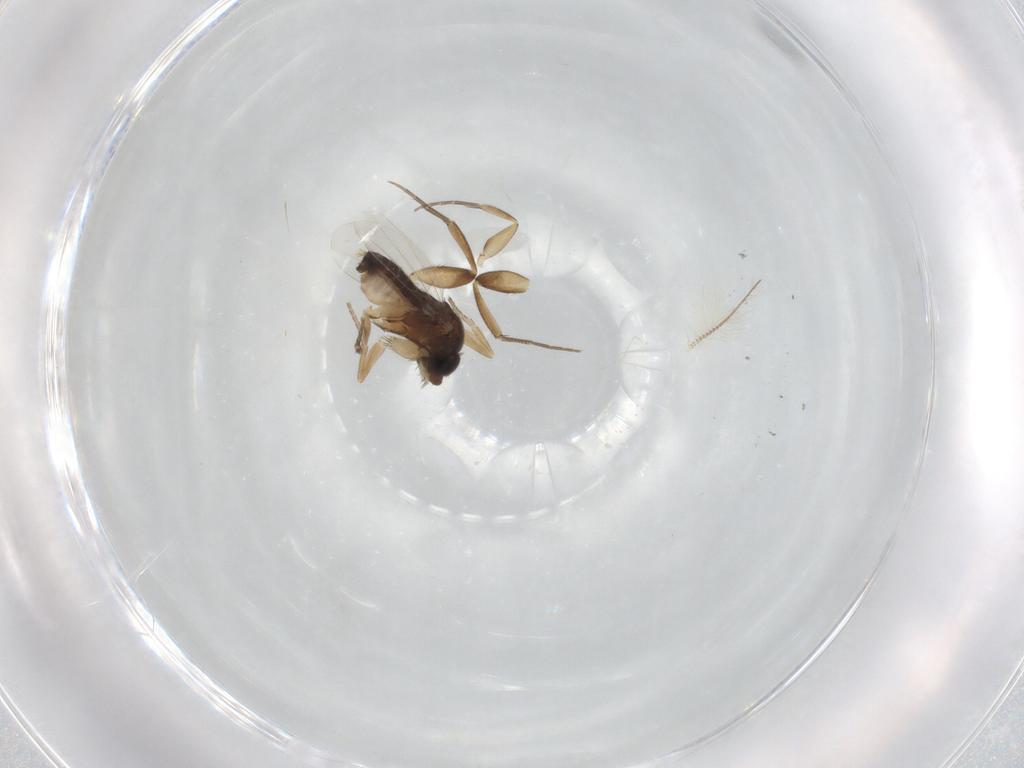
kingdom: Animalia
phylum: Arthropoda
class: Insecta
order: Diptera
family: Phoridae
